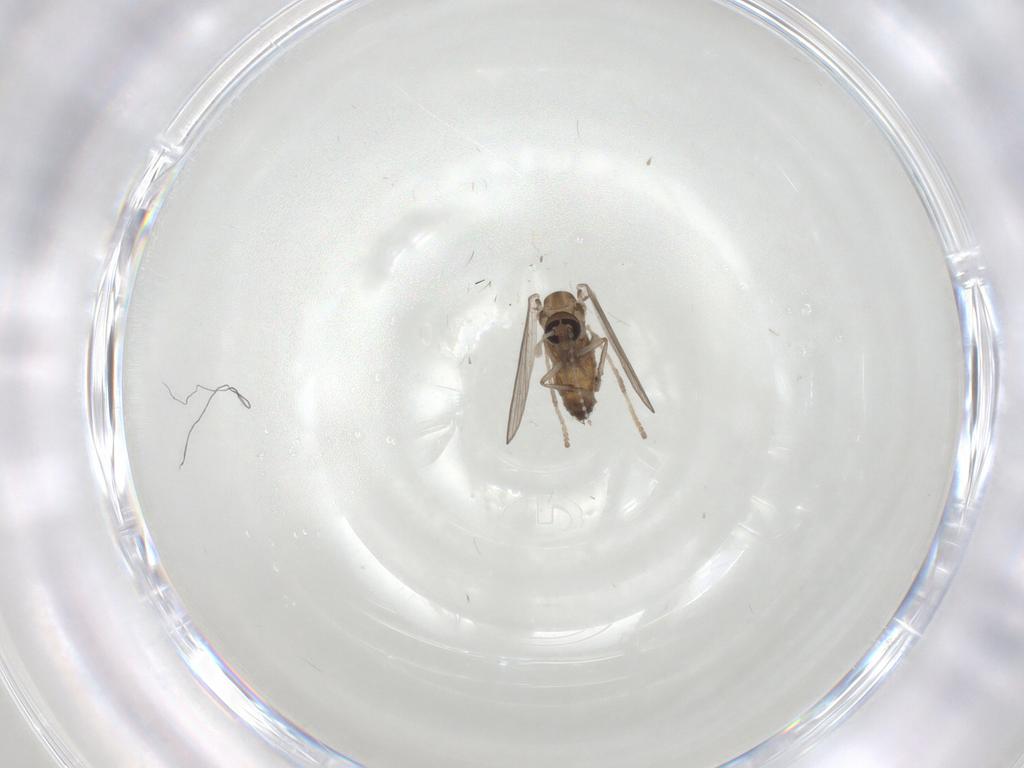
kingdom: Animalia
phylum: Arthropoda
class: Insecta
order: Diptera
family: Psychodidae
